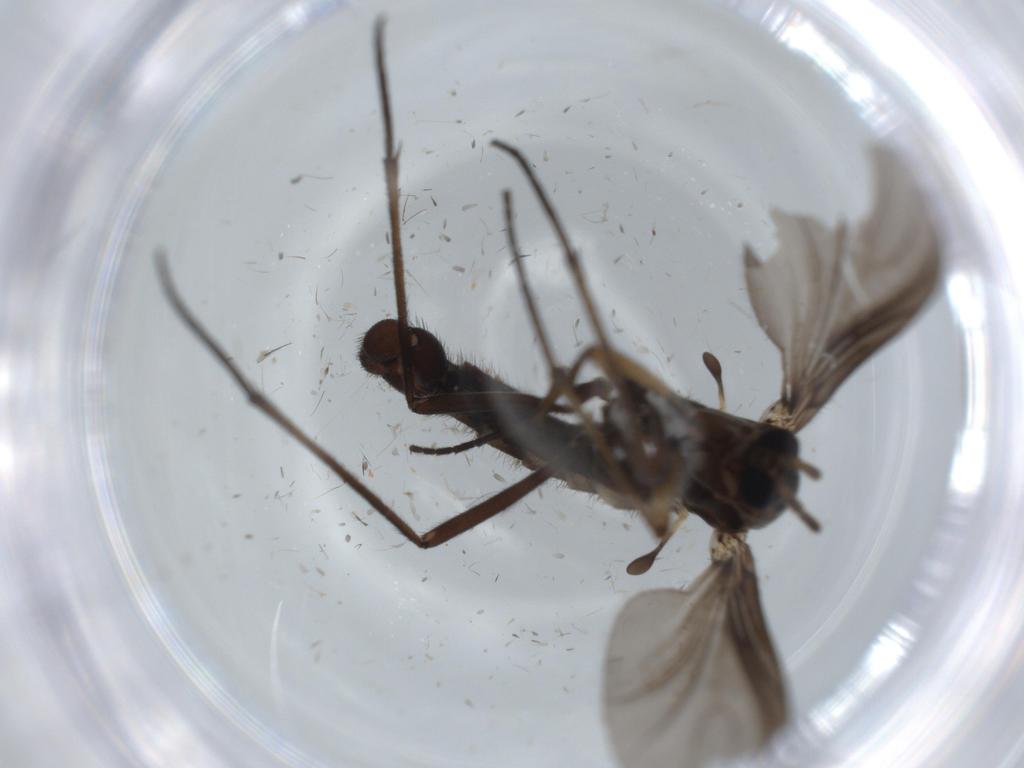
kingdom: Animalia
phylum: Arthropoda
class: Insecta
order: Diptera
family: Sciaridae
